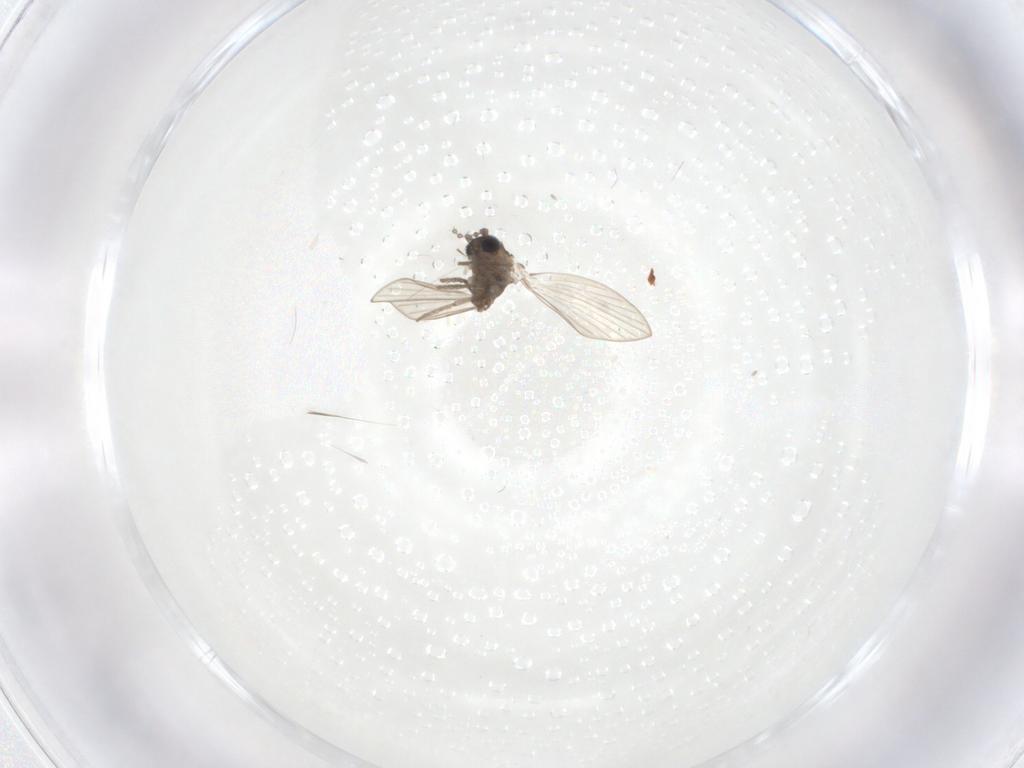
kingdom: Animalia
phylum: Arthropoda
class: Insecta
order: Diptera
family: Psychodidae
